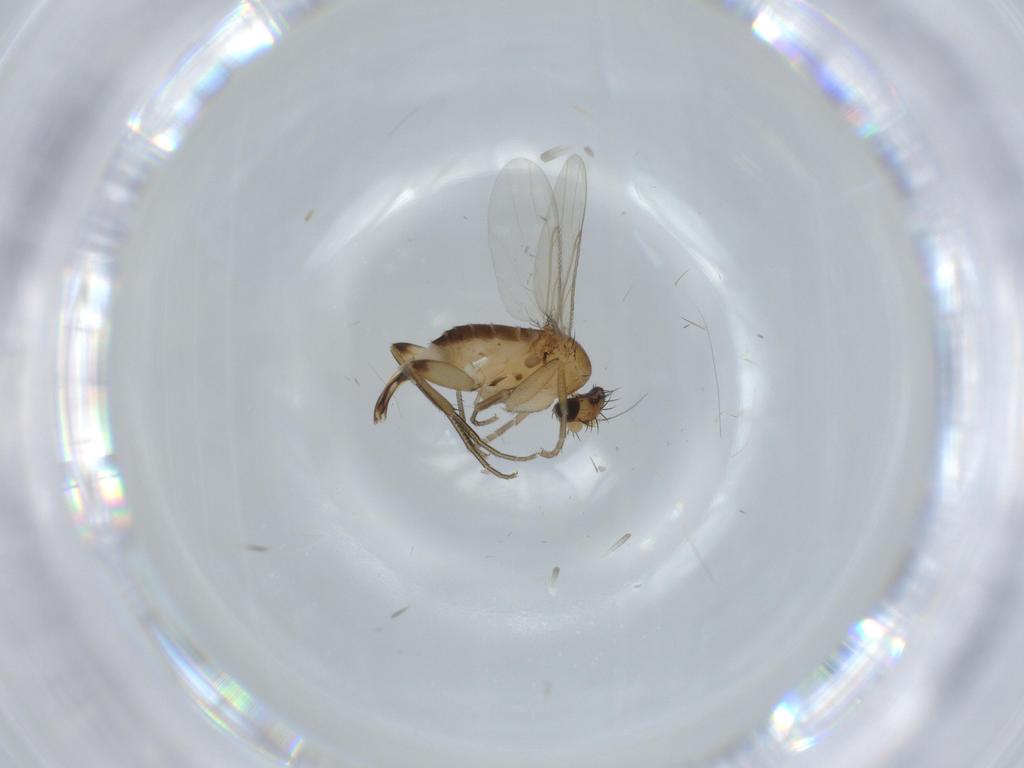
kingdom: Animalia
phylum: Arthropoda
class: Insecta
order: Diptera
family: Phoridae
